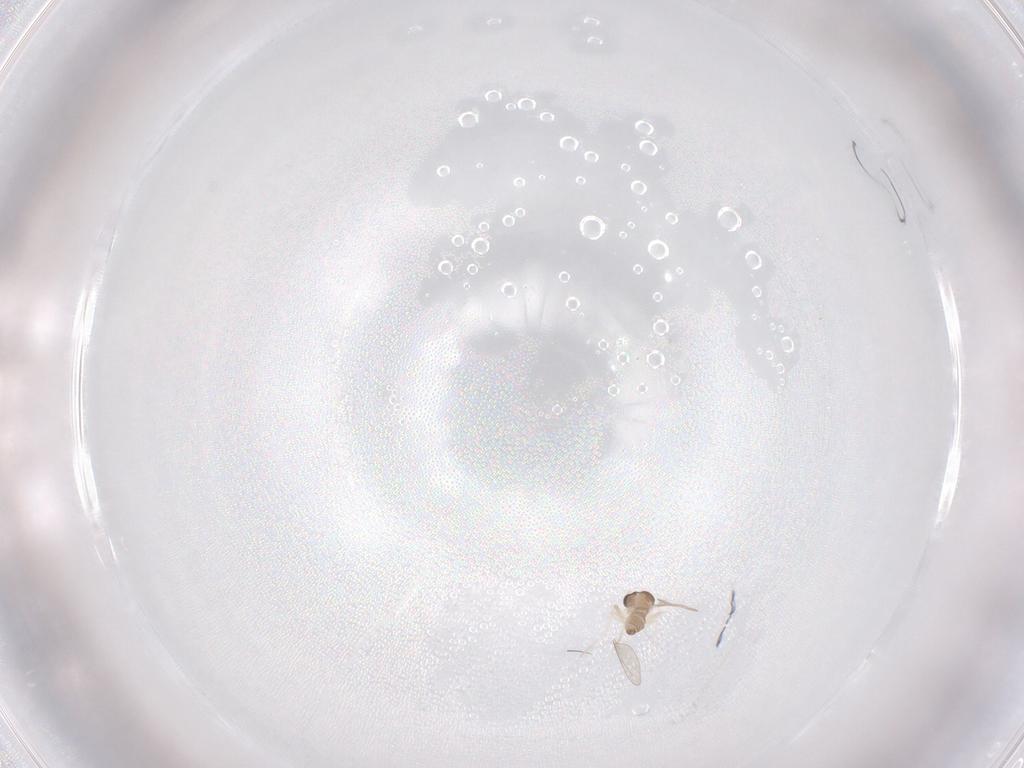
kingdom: Animalia
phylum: Arthropoda
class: Insecta
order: Diptera
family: Cecidomyiidae
